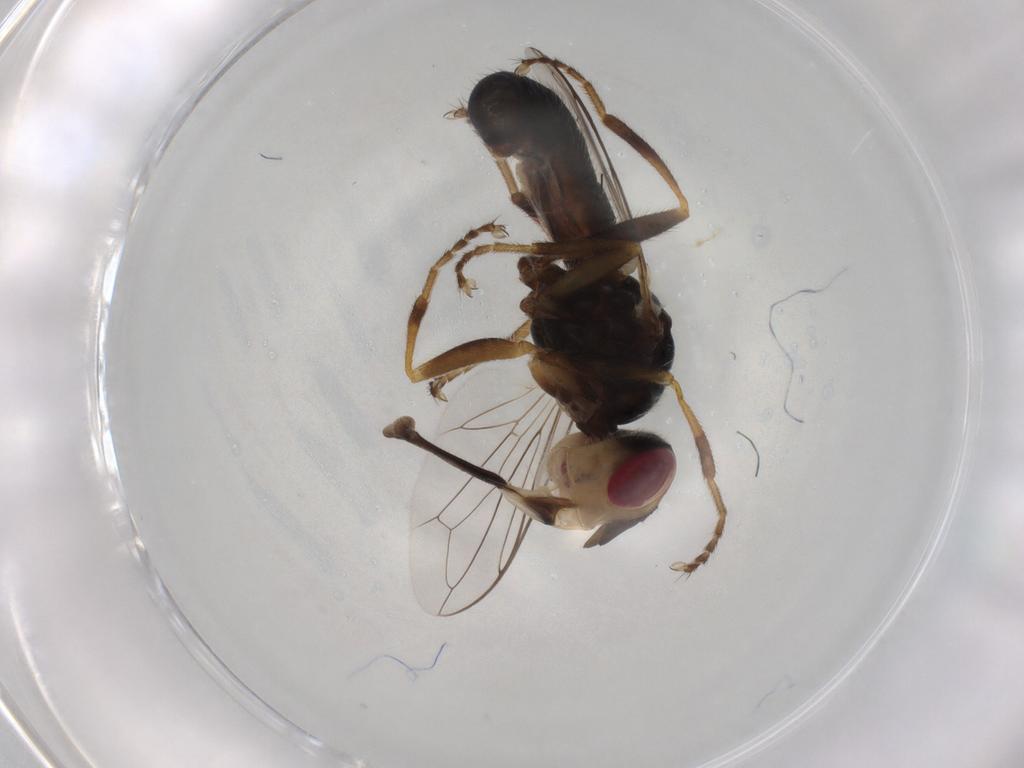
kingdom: Animalia
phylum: Arthropoda
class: Insecta
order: Diptera
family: Conopidae
